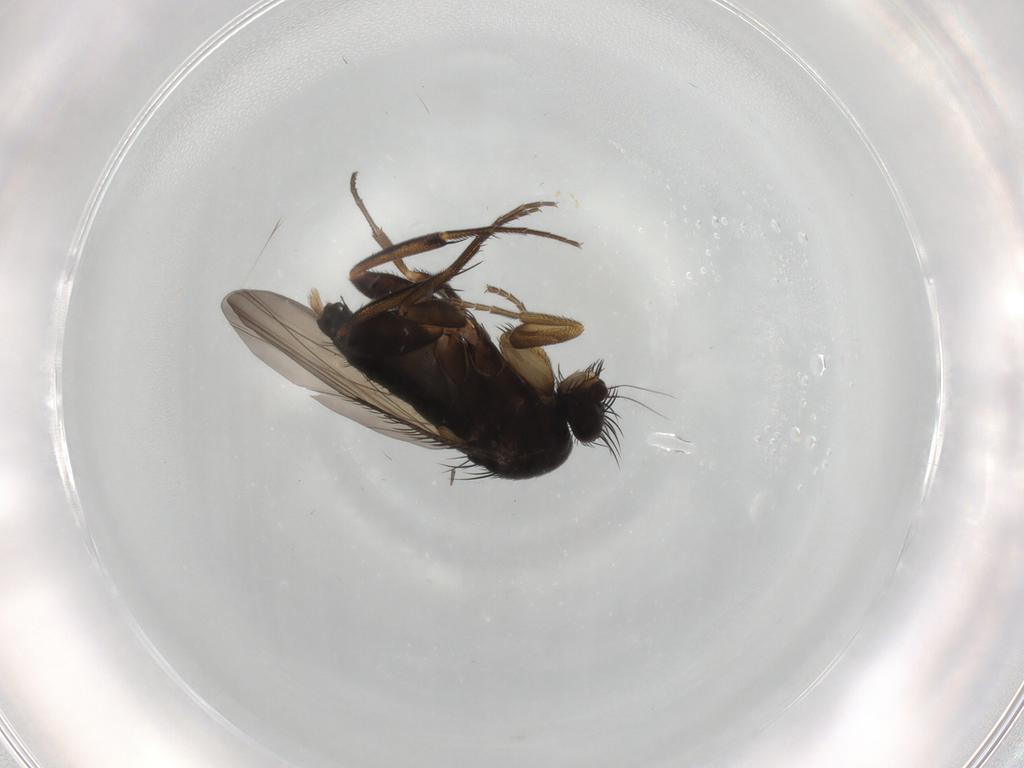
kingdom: Animalia
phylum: Arthropoda
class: Insecta
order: Diptera
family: Phoridae
